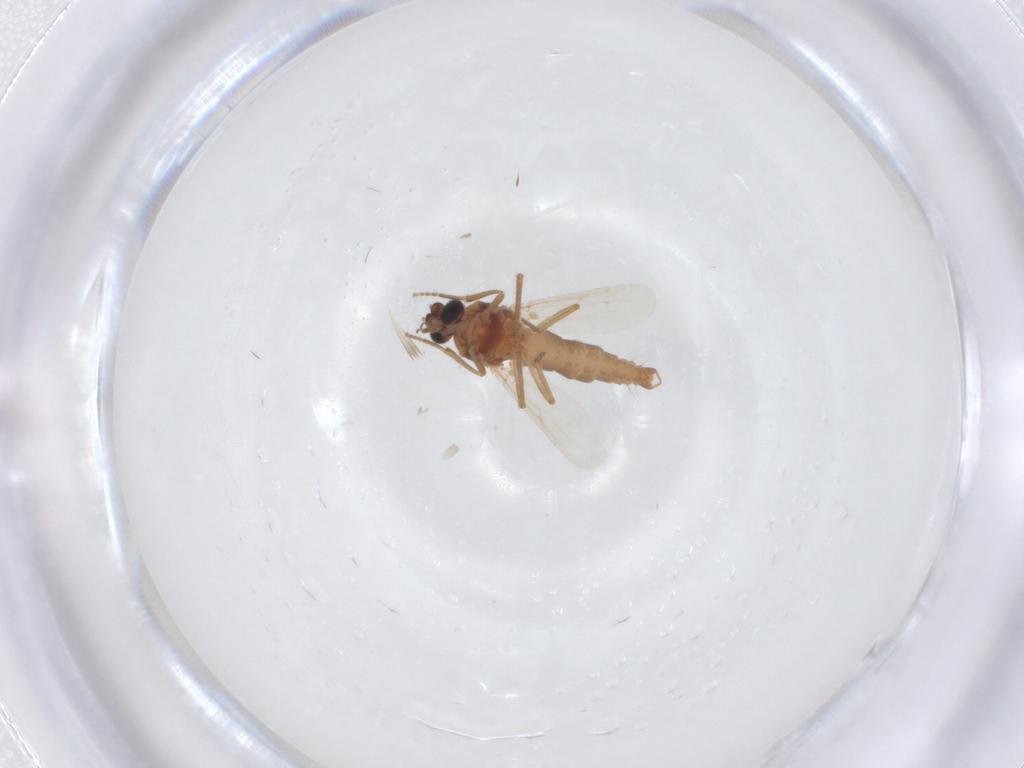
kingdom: Animalia
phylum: Arthropoda
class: Insecta
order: Diptera
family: Ceratopogonidae
